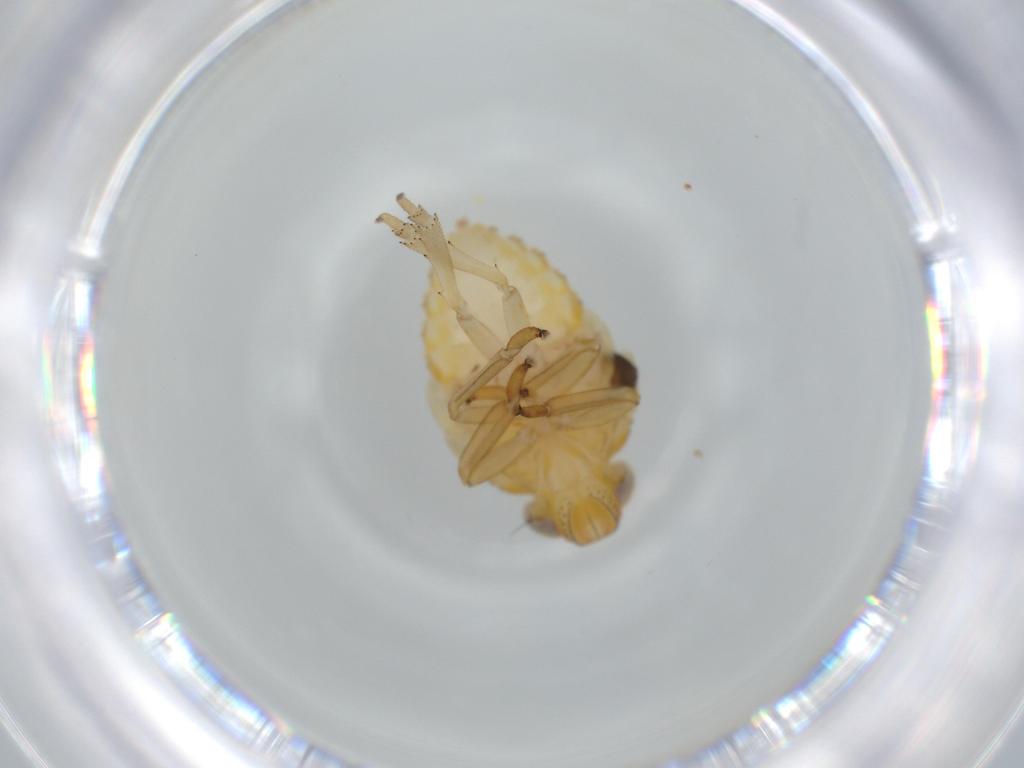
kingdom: Animalia
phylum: Arthropoda
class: Insecta
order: Hemiptera
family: Issidae
